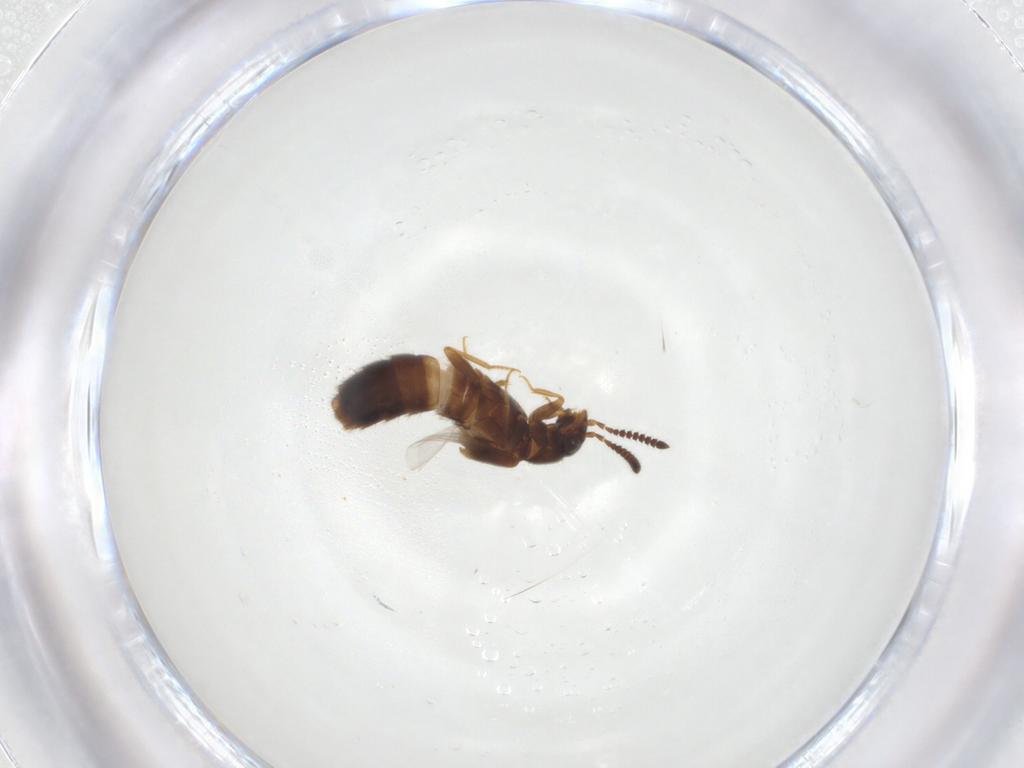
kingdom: Animalia
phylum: Arthropoda
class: Insecta
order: Coleoptera
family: Staphylinidae
